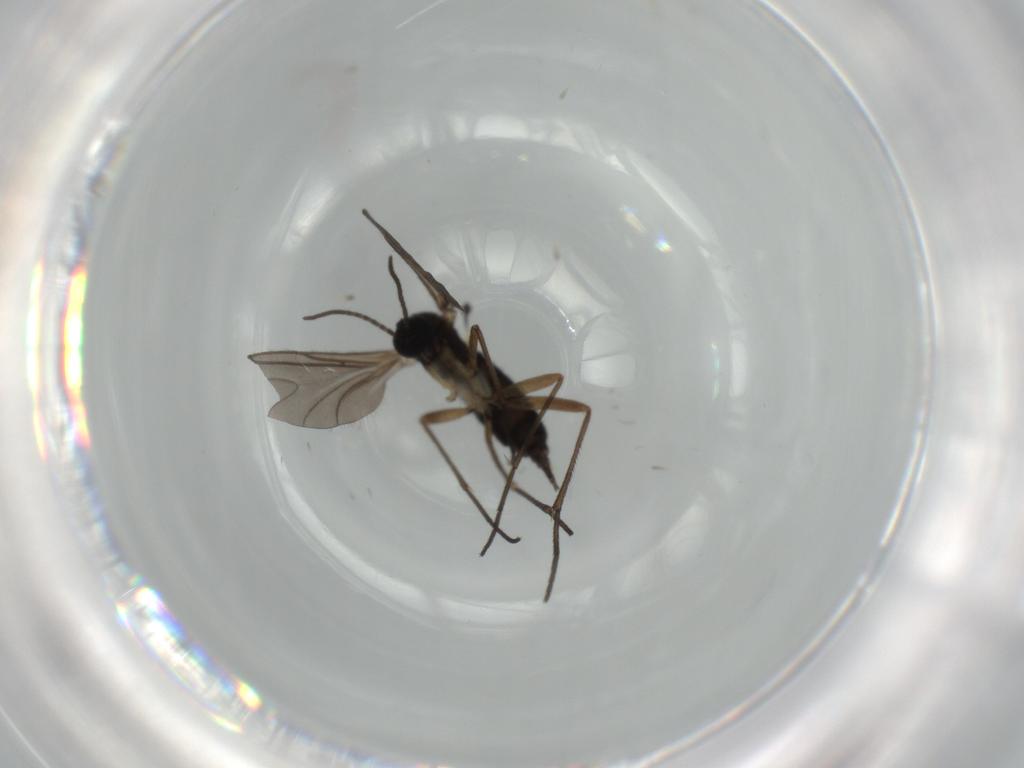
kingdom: Animalia
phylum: Arthropoda
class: Insecta
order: Diptera
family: Sciaridae
